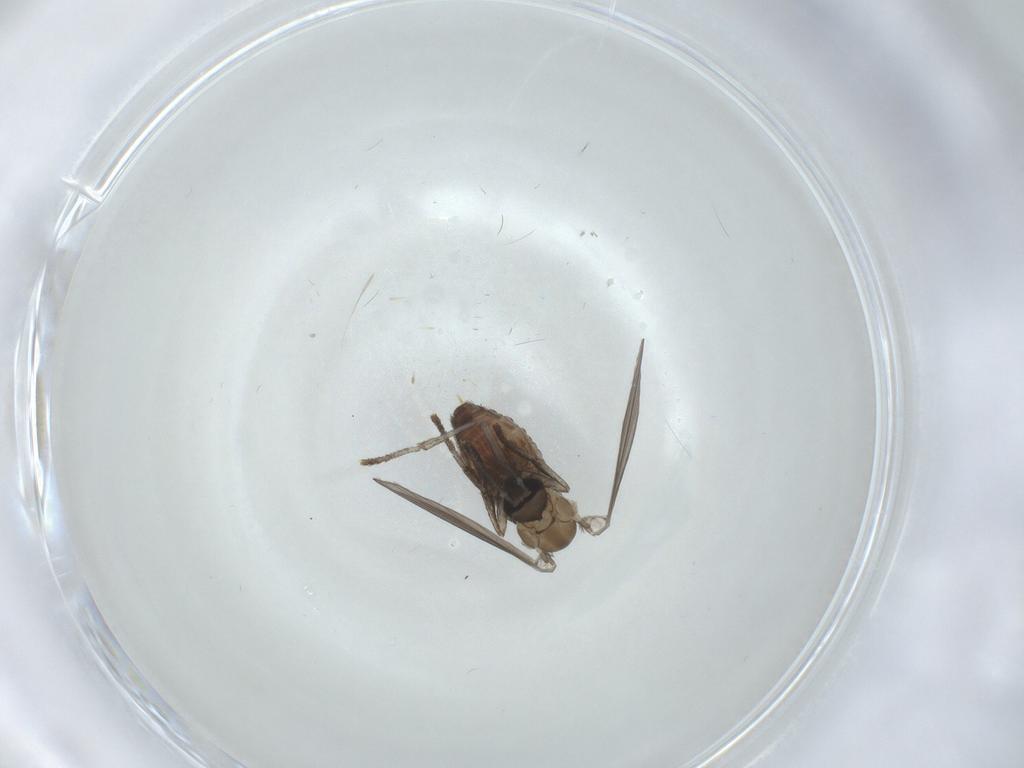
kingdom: Animalia
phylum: Arthropoda
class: Insecta
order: Diptera
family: Psychodidae
